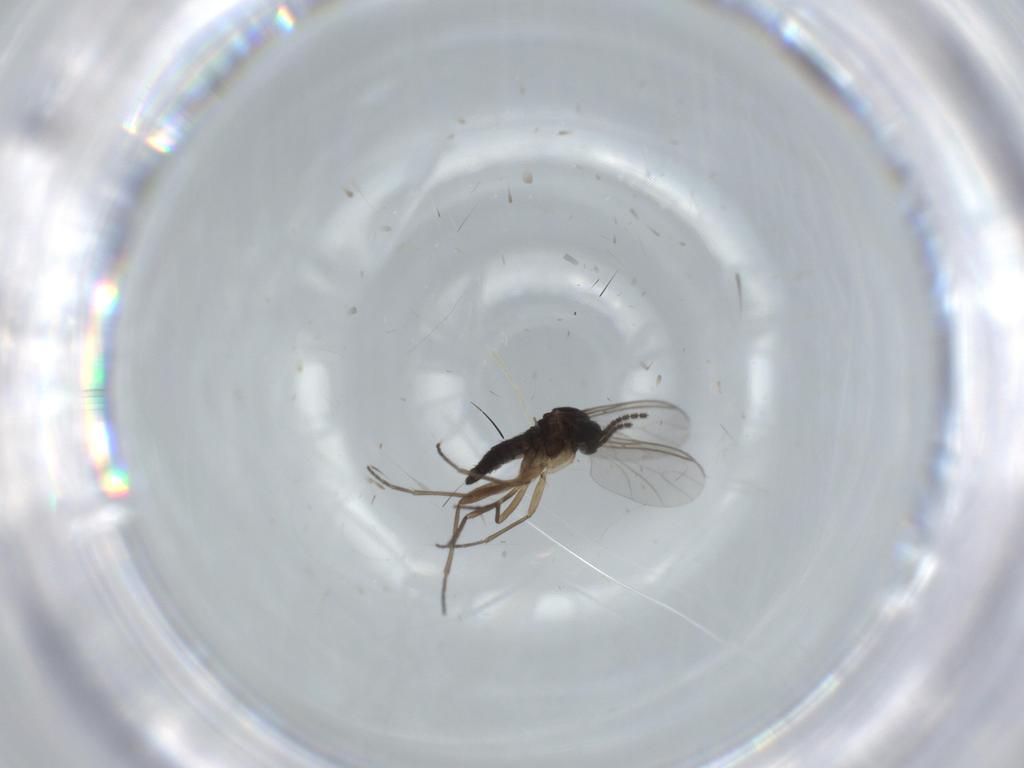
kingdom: Animalia
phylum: Arthropoda
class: Insecta
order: Diptera
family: Sciaridae
